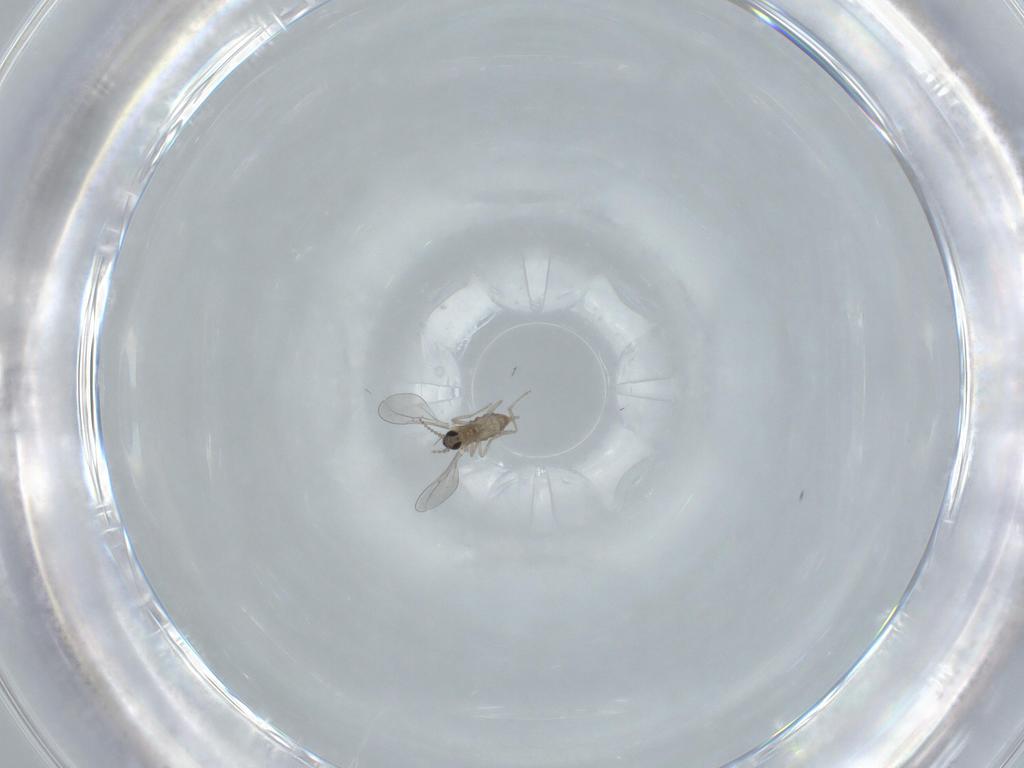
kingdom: Animalia
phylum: Arthropoda
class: Insecta
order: Diptera
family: Cecidomyiidae
